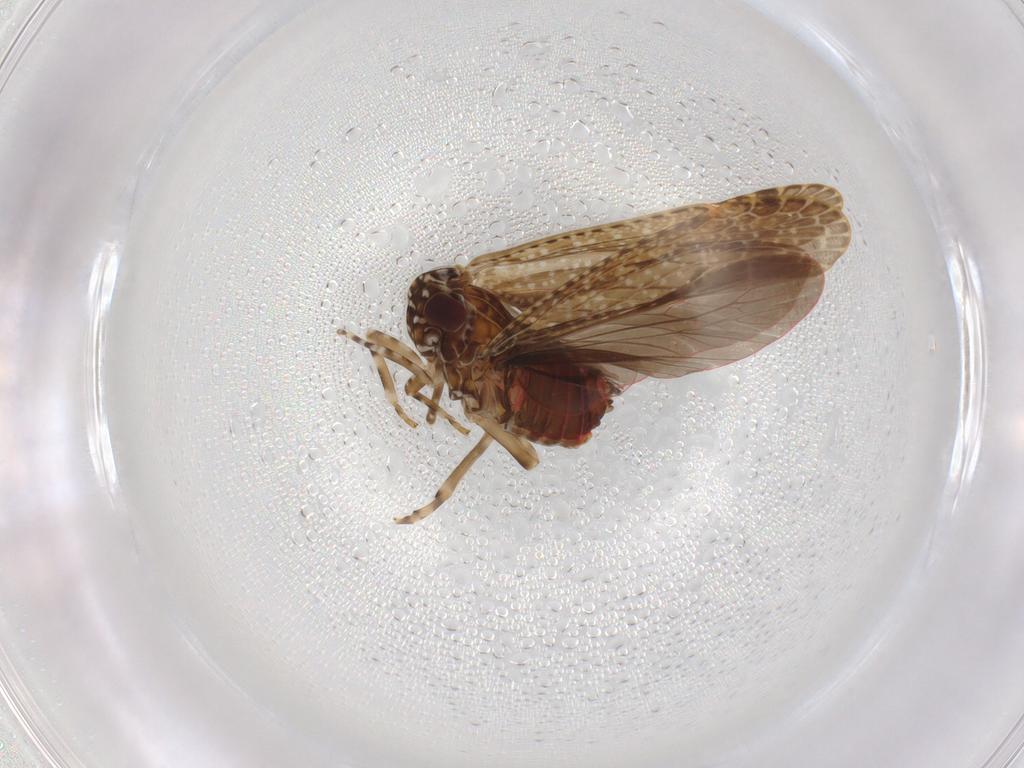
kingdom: Animalia
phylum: Arthropoda
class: Insecta
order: Hemiptera
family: Achilidae
